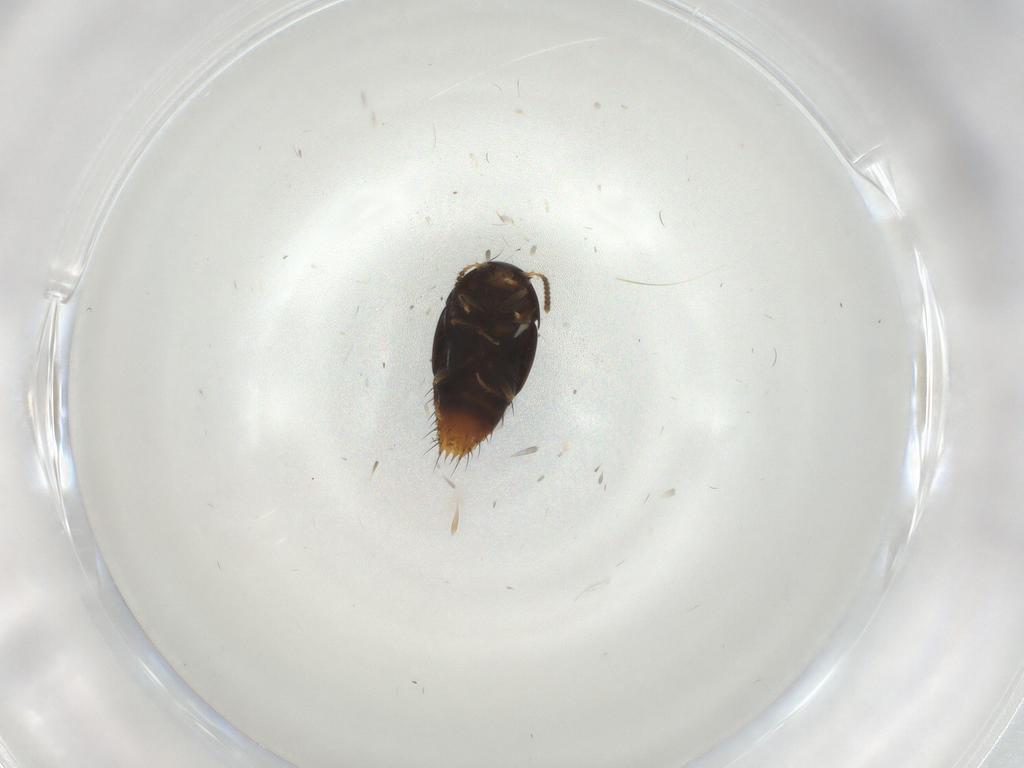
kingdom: Animalia
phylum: Arthropoda
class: Insecta
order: Coleoptera
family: Staphylinidae
